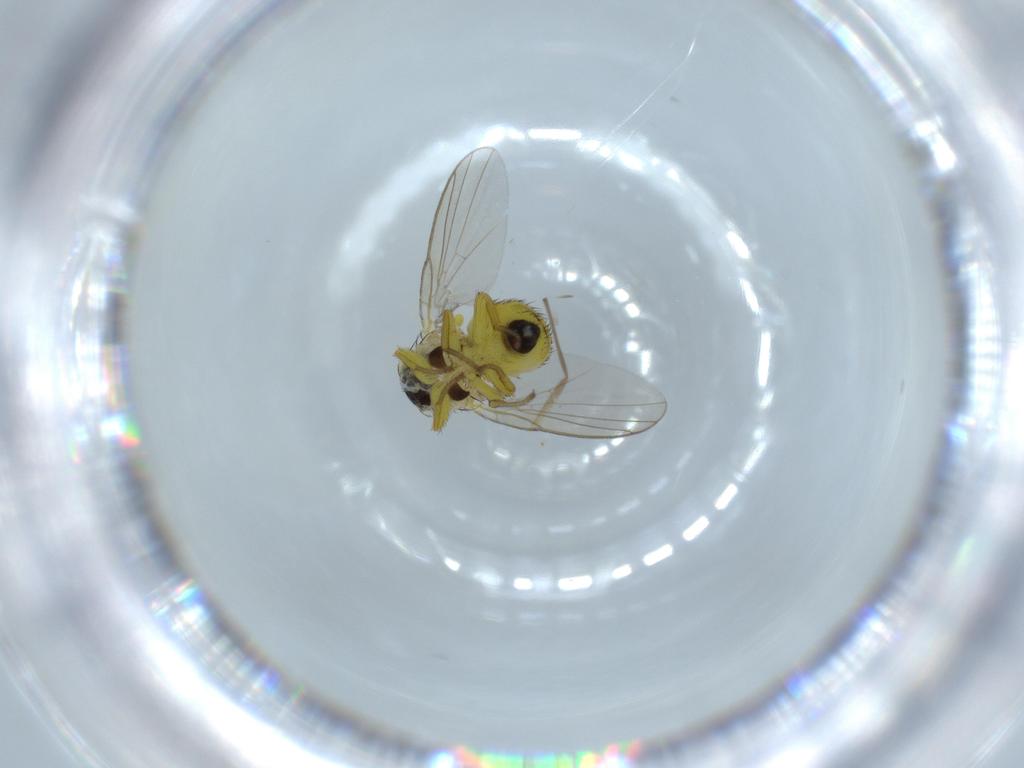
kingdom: Animalia
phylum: Arthropoda
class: Insecta
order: Diptera
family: Agromyzidae
